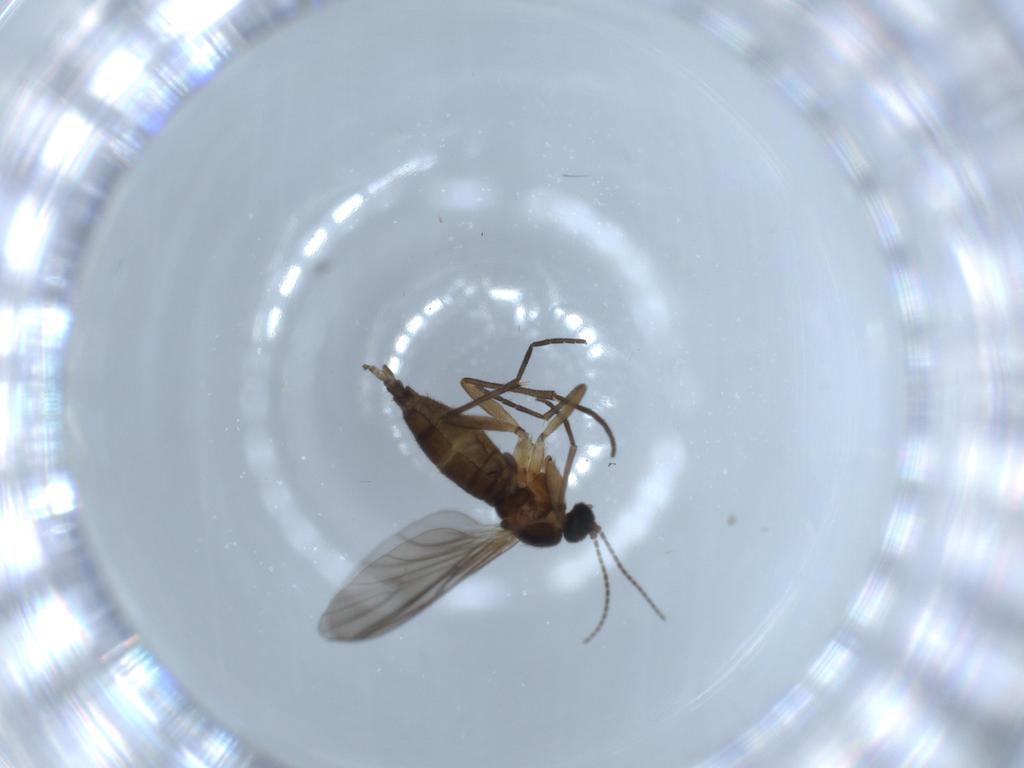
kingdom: Animalia
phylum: Arthropoda
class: Insecta
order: Diptera
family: Sciaridae
